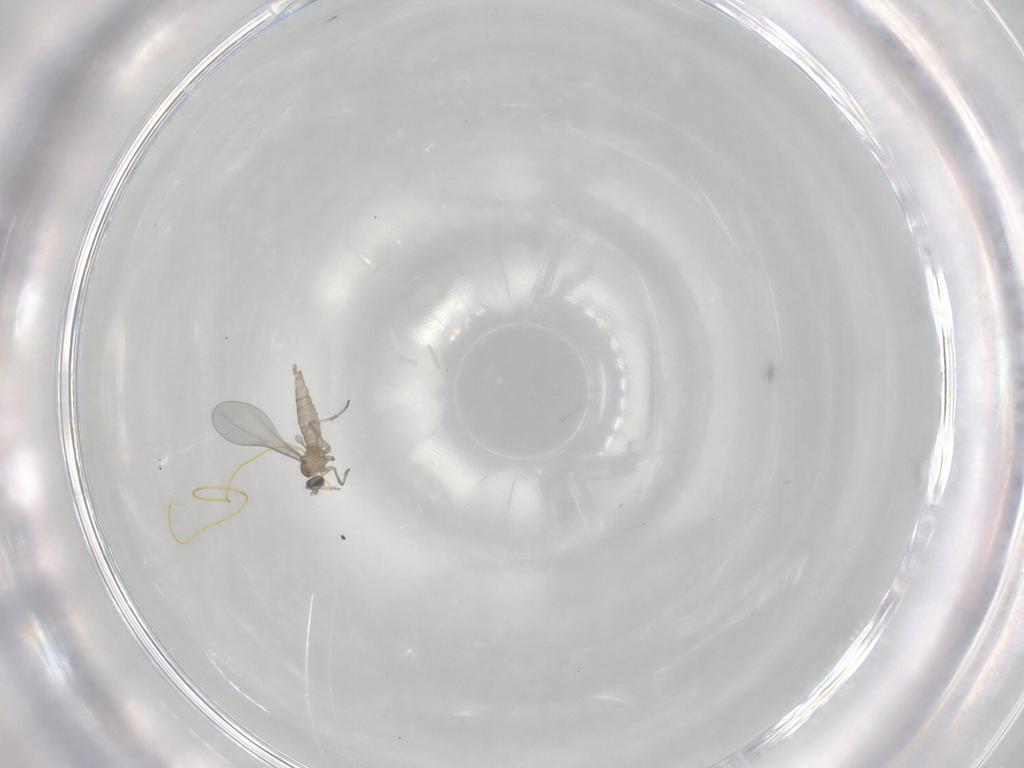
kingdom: Animalia
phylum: Arthropoda
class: Insecta
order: Diptera
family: Cecidomyiidae
